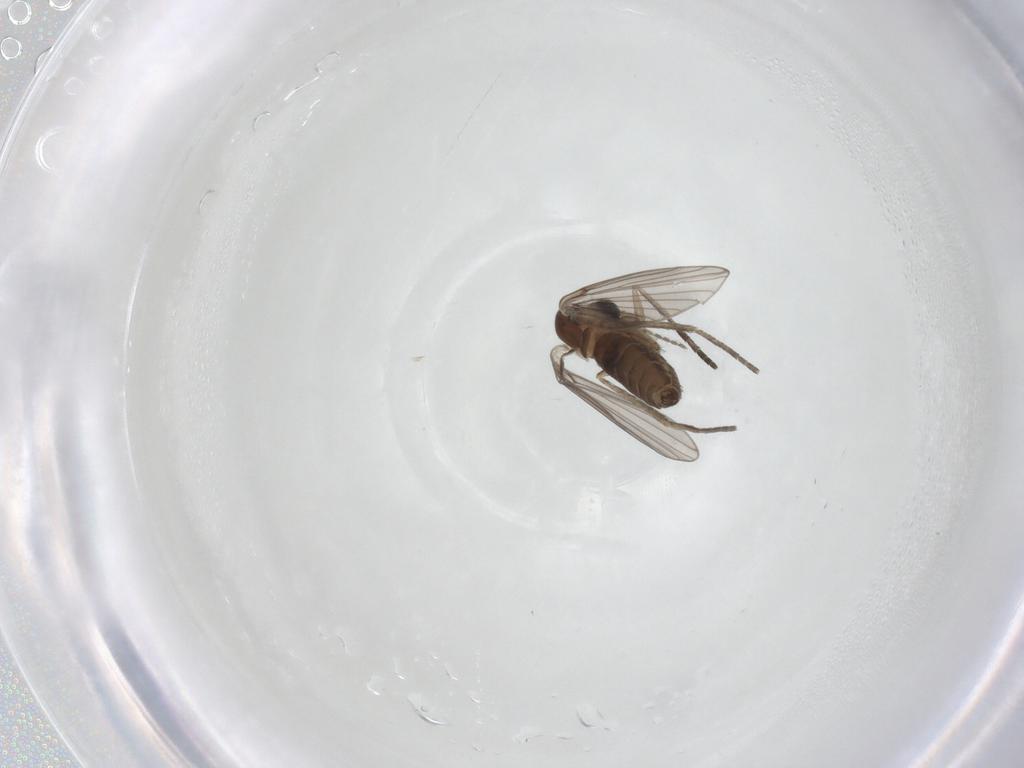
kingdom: Animalia
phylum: Arthropoda
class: Insecta
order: Diptera
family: Psychodidae
